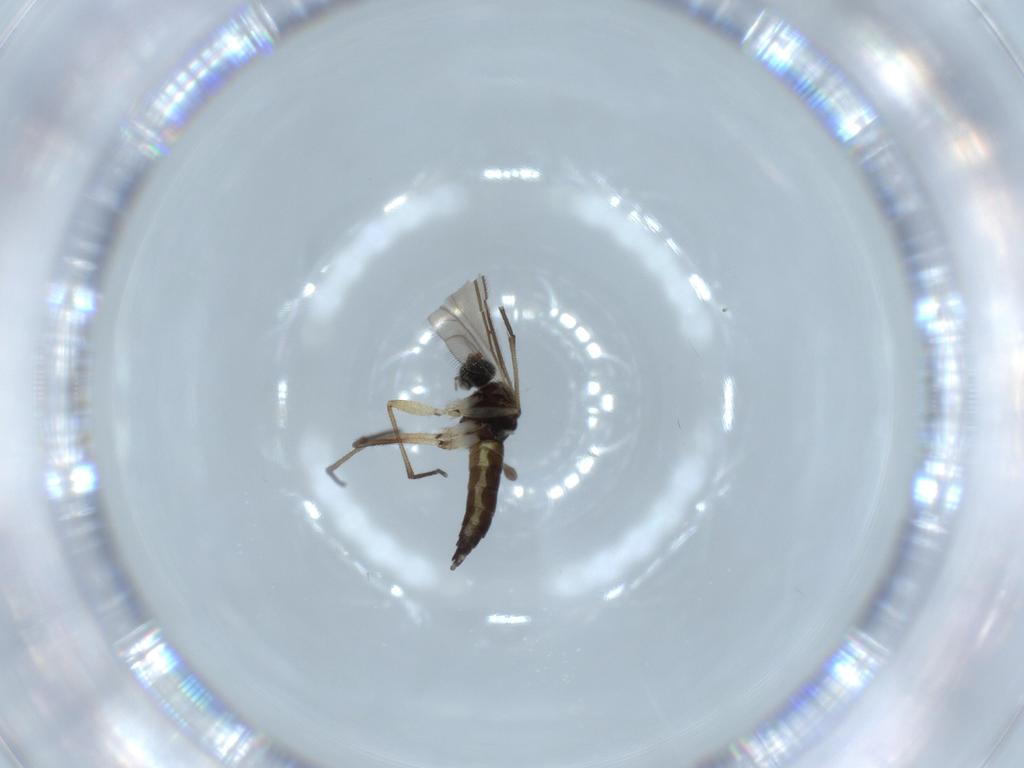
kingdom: Animalia
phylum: Arthropoda
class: Insecta
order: Diptera
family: Sciaridae
